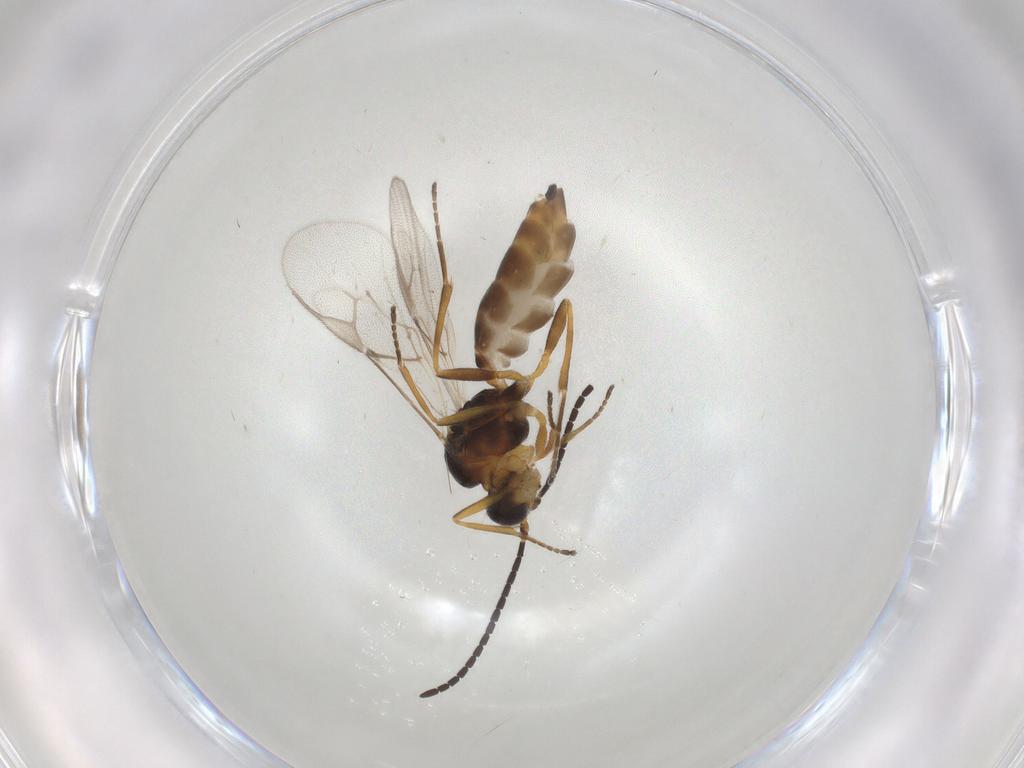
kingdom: Animalia
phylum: Arthropoda
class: Insecta
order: Hymenoptera
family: Braconidae
